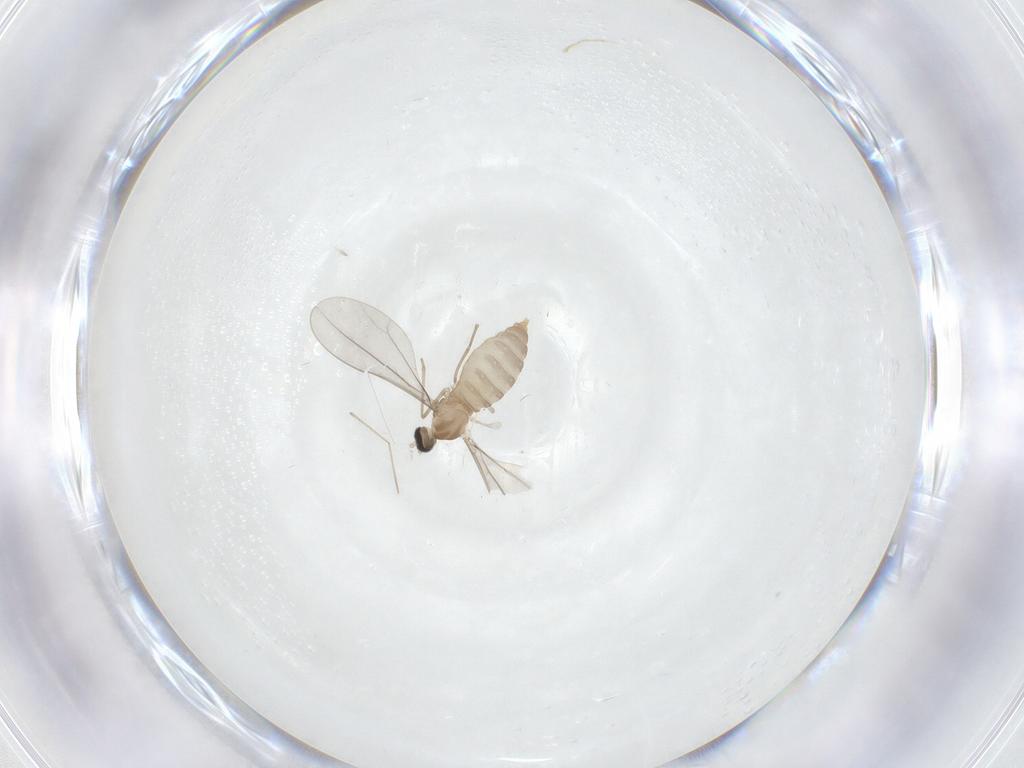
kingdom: Animalia
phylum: Arthropoda
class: Insecta
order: Diptera
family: Cecidomyiidae
